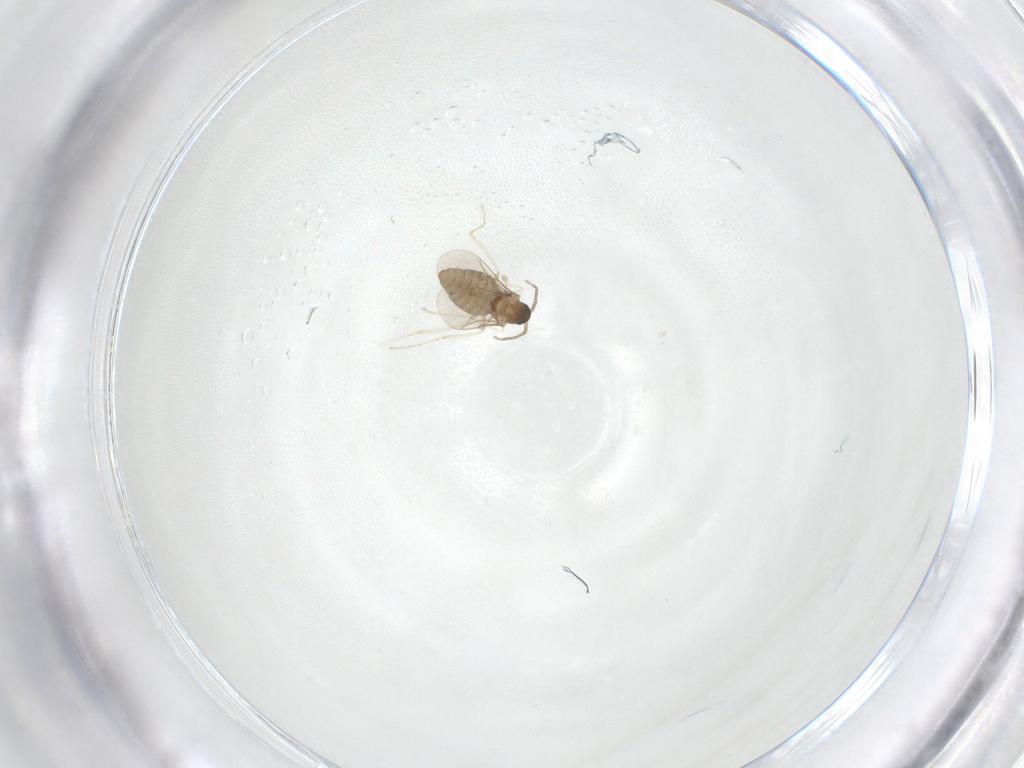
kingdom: Animalia
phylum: Arthropoda
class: Insecta
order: Diptera
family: Cecidomyiidae
